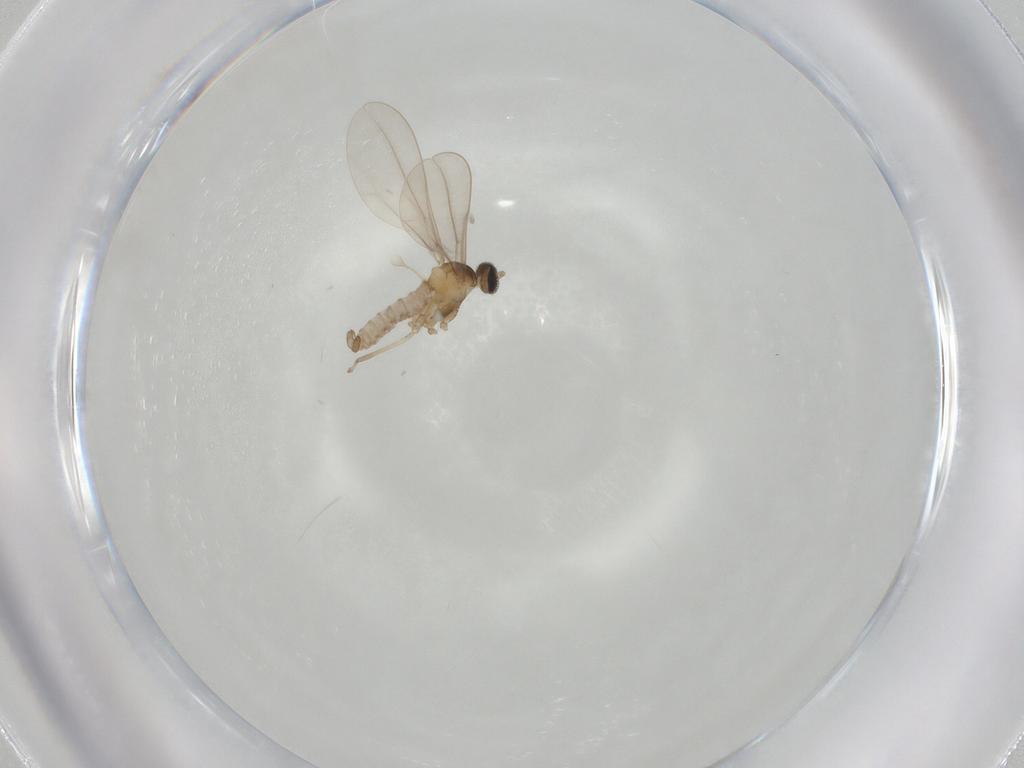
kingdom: Animalia
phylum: Arthropoda
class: Insecta
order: Diptera
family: Cecidomyiidae
